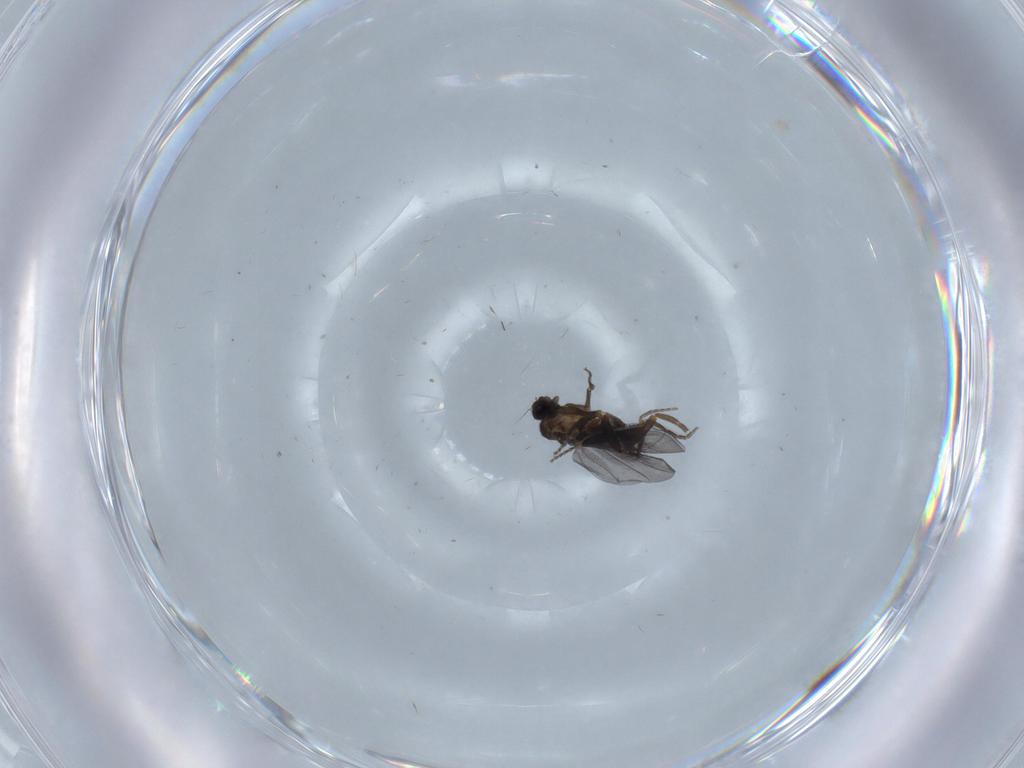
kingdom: Animalia
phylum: Arthropoda
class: Insecta
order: Diptera
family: Phoridae
